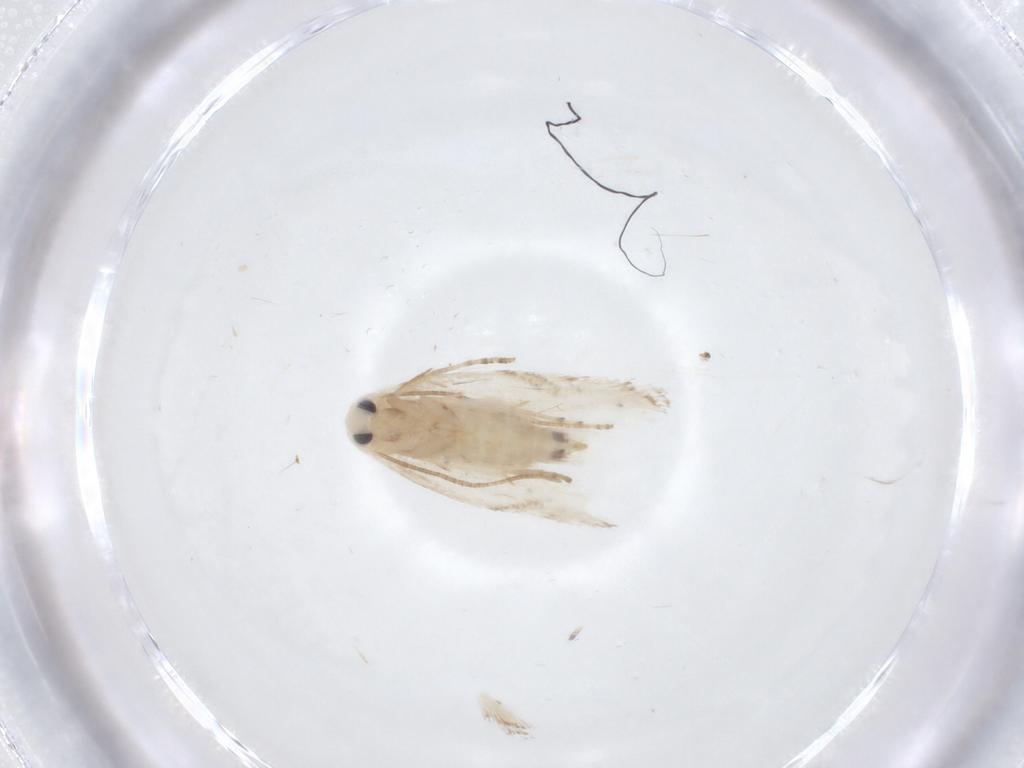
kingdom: Animalia
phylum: Arthropoda
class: Insecta
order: Lepidoptera
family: Lyonetiidae
